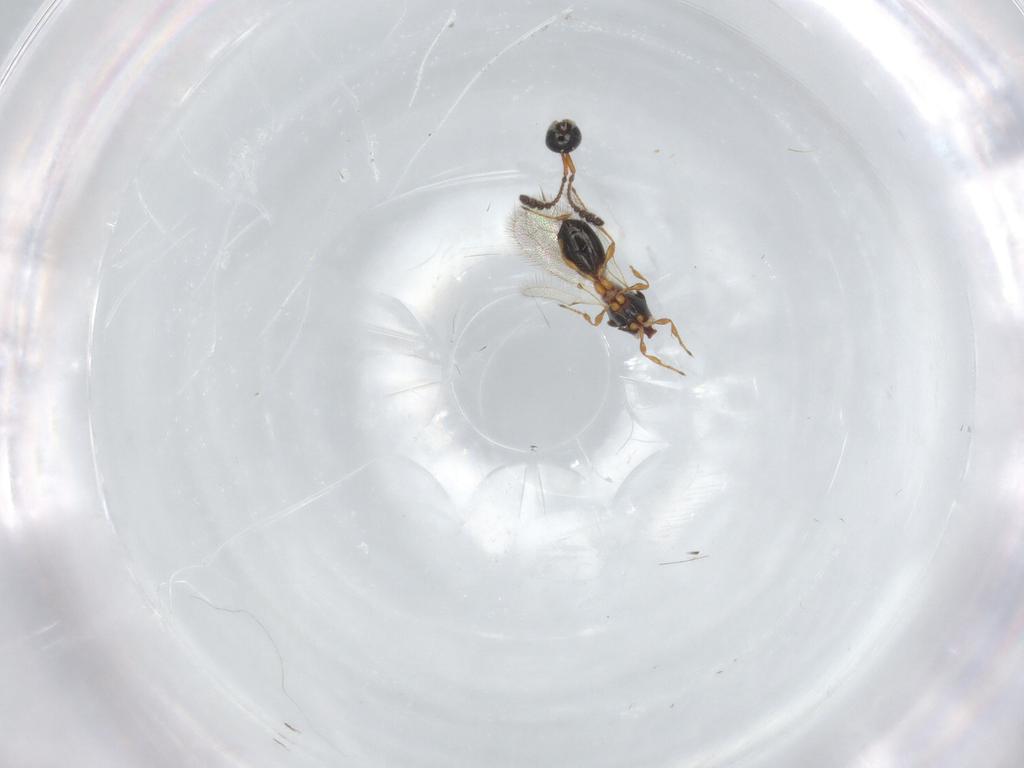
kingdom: Animalia
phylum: Arthropoda
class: Insecta
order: Hymenoptera
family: Diapriidae
